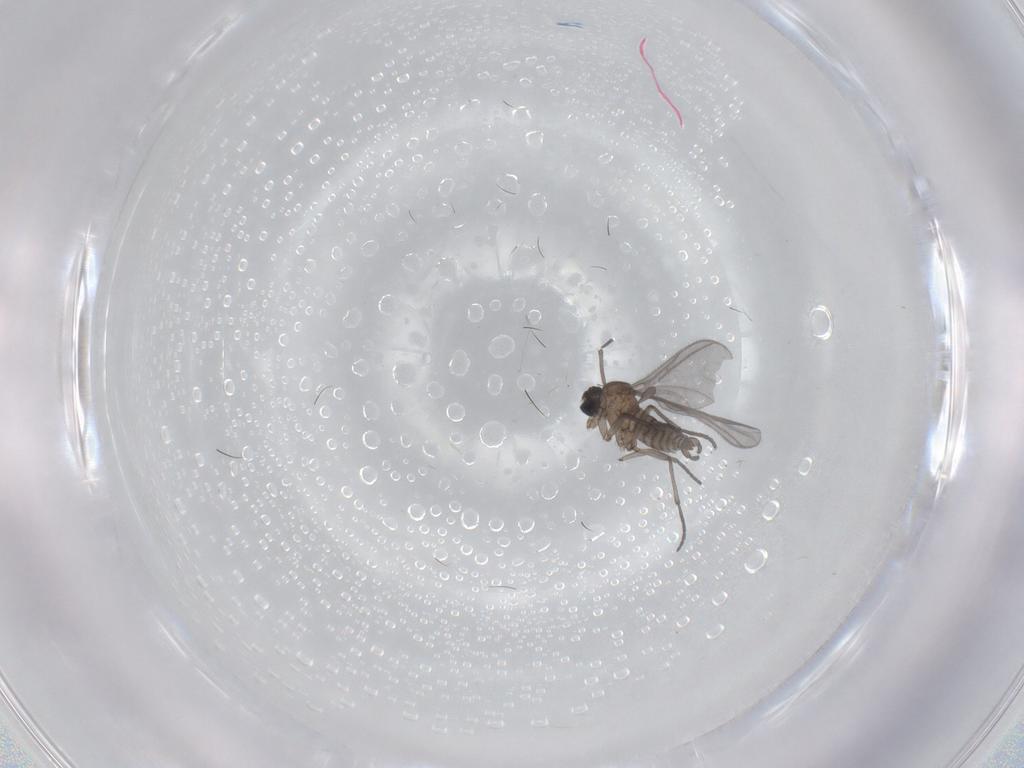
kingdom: Animalia
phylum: Arthropoda
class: Insecta
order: Diptera
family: Sciaridae
